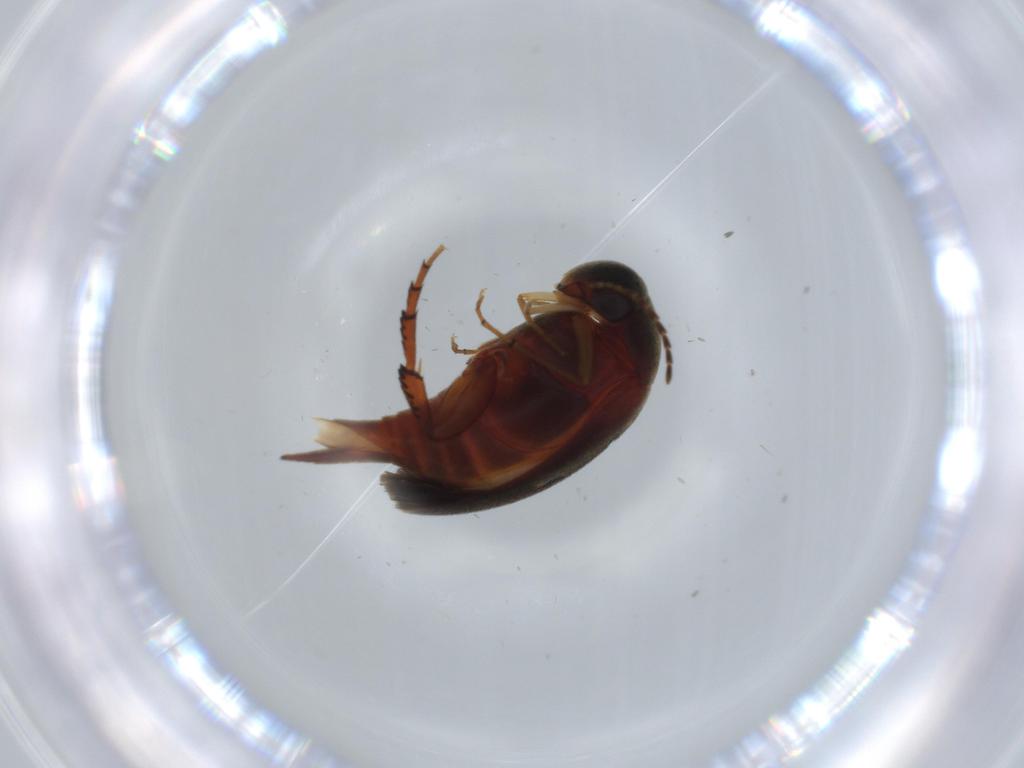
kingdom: Animalia
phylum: Arthropoda
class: Insecta
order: Coleoptera
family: Mordellidae
